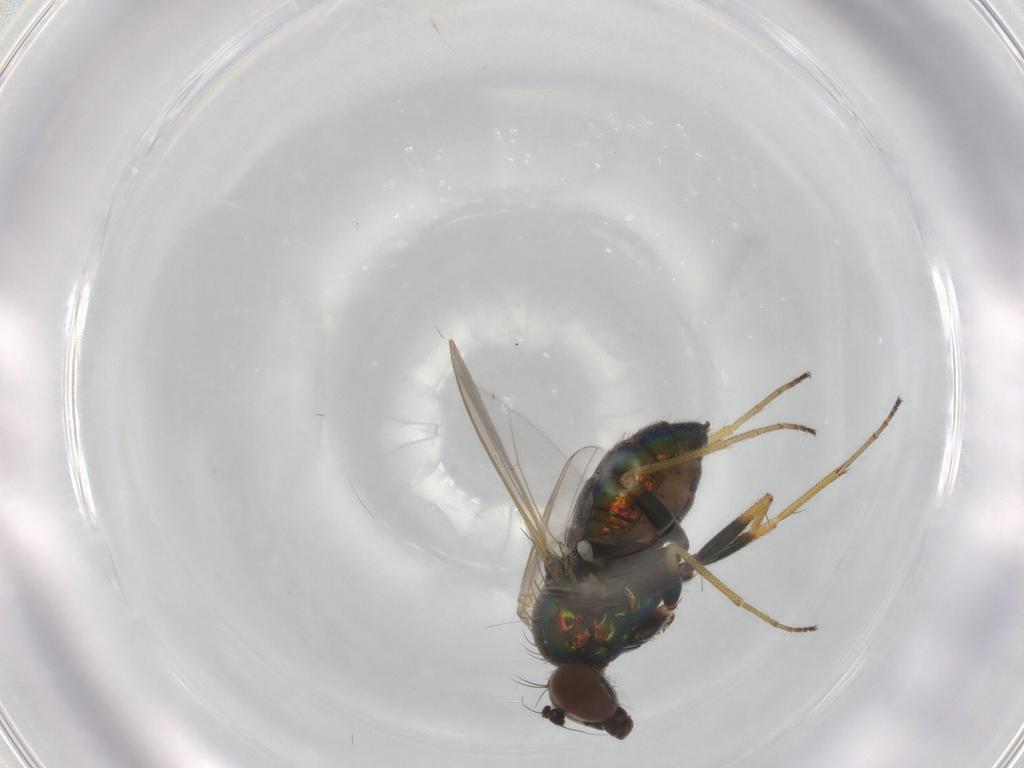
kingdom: Animalia
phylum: Arthropoda
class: Insecta
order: Diptera
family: Dolichopodidae
